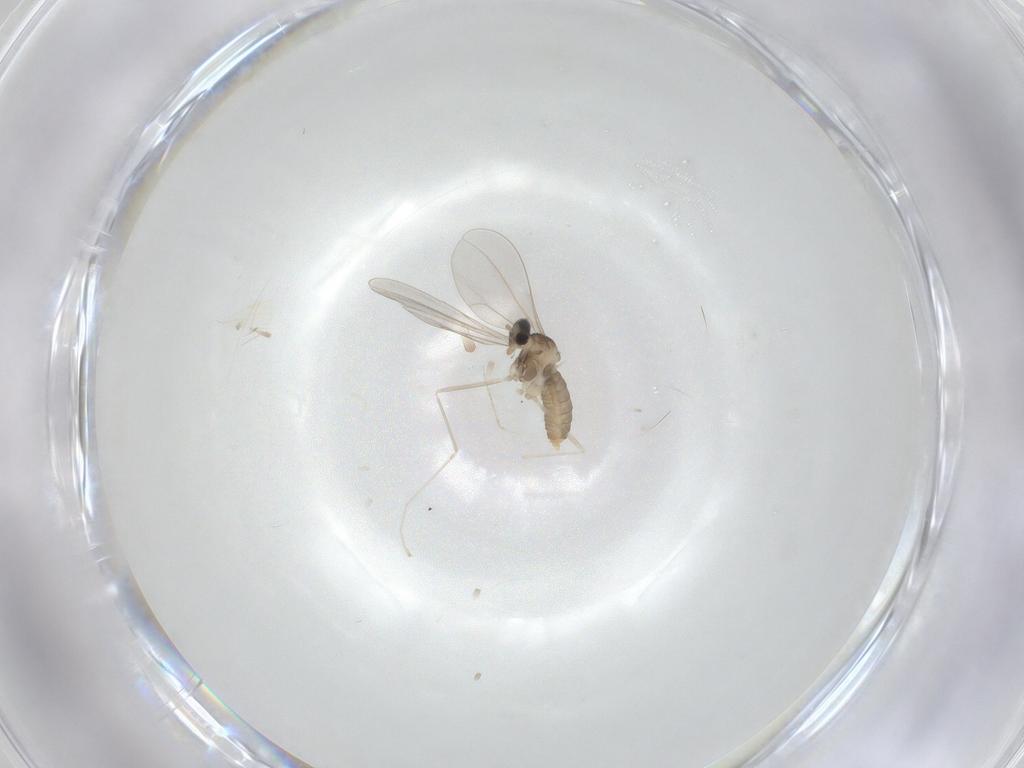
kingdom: Animalia
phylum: Arthropoda
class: Insecta
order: Diptera
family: Cecidomyiidae
